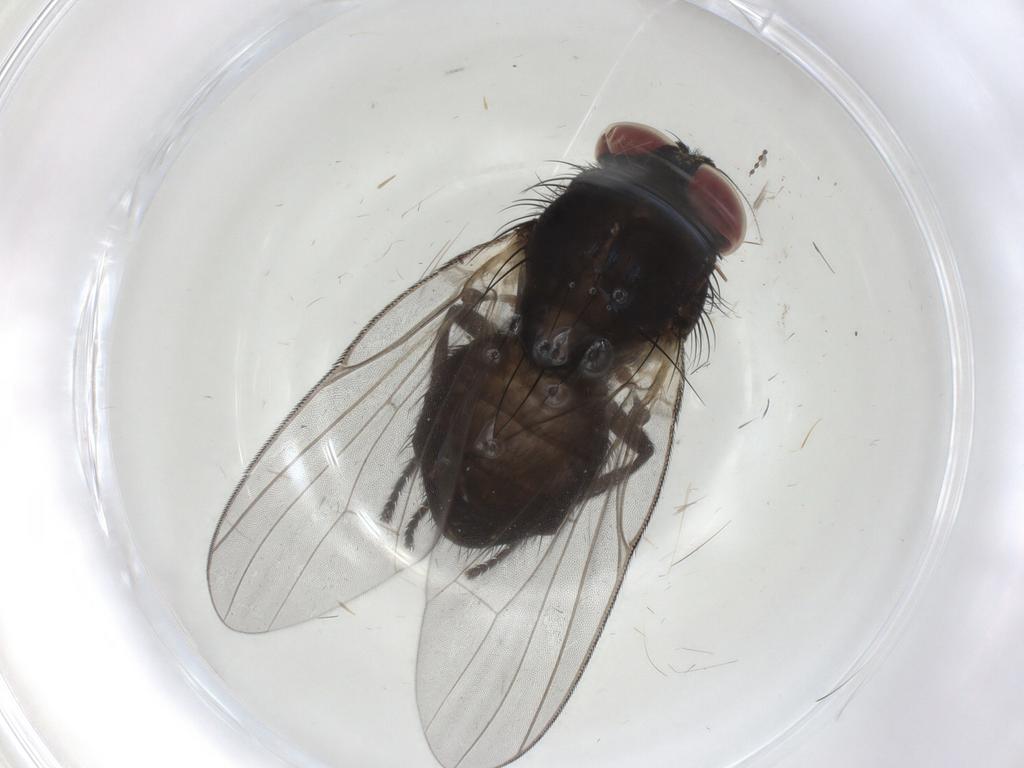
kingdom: Animalia
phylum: Arthropoda
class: Insecta
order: Diptera
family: Lonchaeidae
